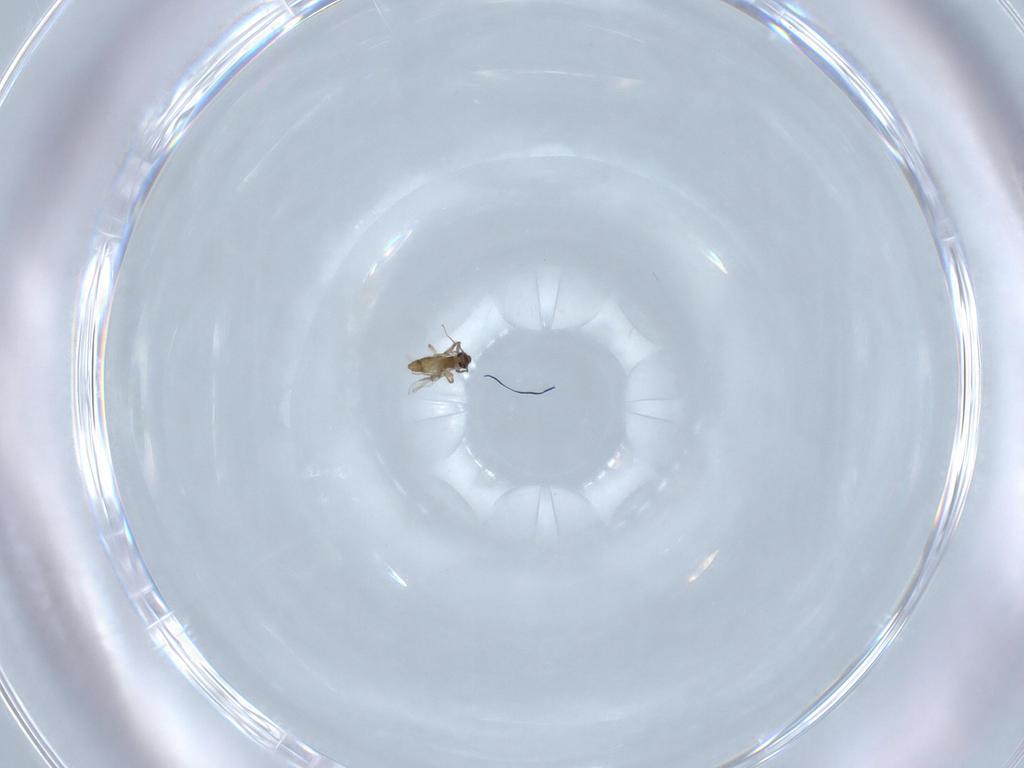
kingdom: Animalia
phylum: Arthropoda
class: Insecta
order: Diptera
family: Chironomidae
